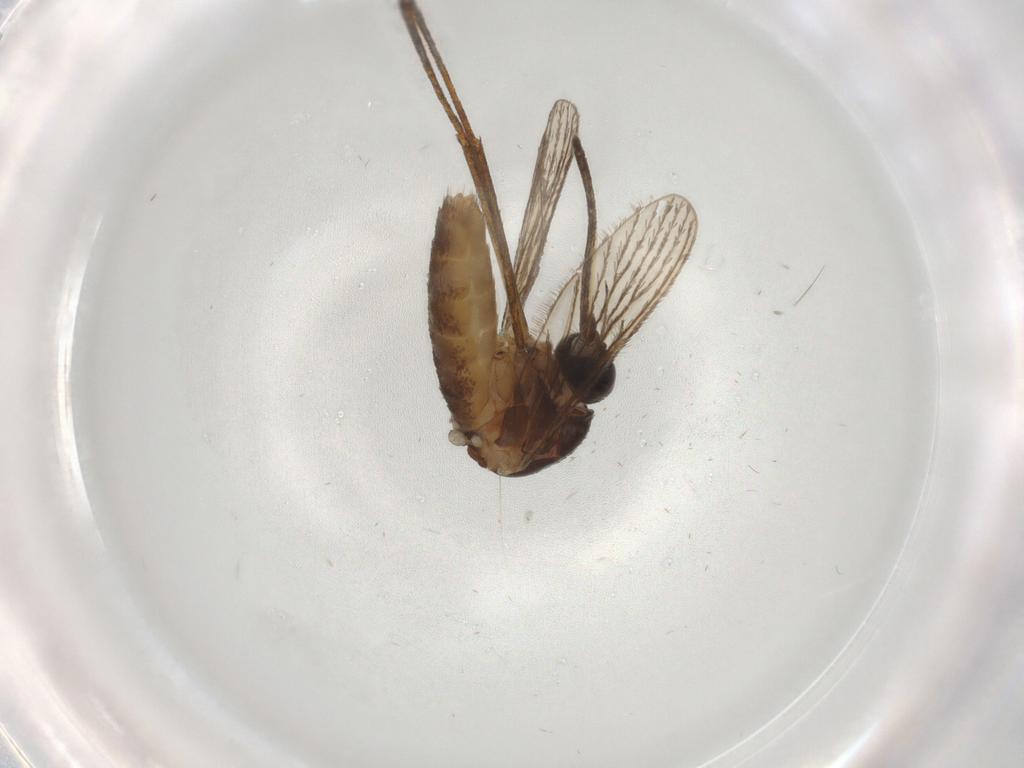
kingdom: Animalia
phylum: Arthropoda
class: Insecta
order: Diptera
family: Sciaridae
